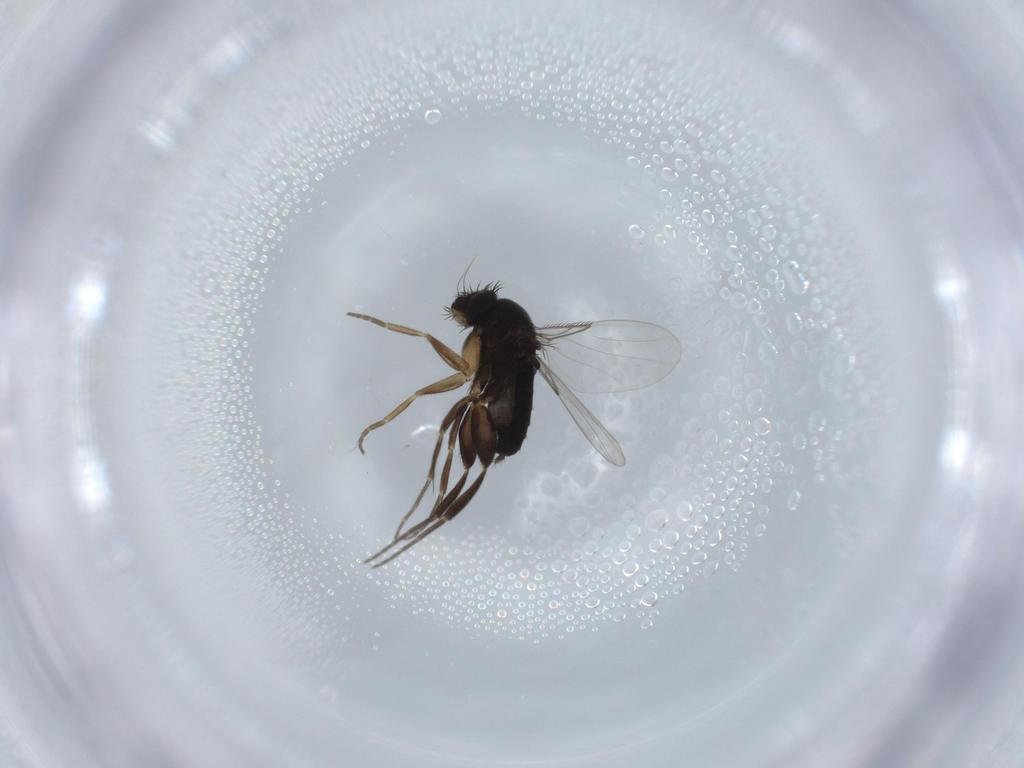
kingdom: Animalia
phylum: Arthropoda
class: Insecta
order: Diptera
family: Phoridae
